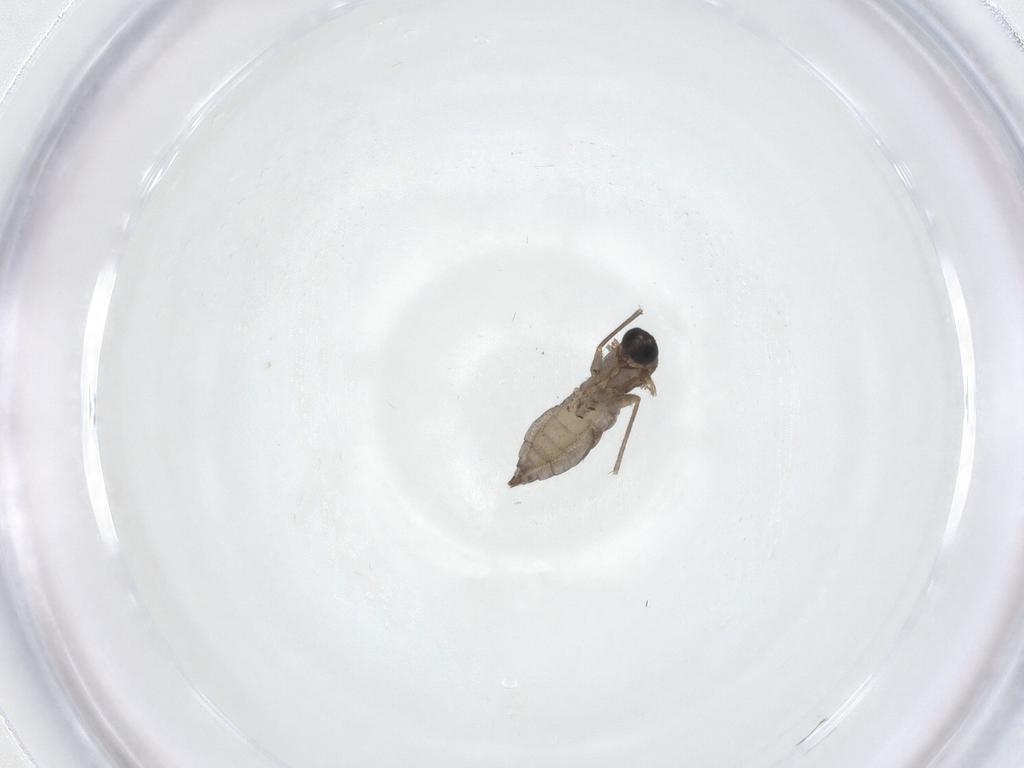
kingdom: Animalia
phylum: Arthropoda
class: Insecta
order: Diptera
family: Sciaridae
